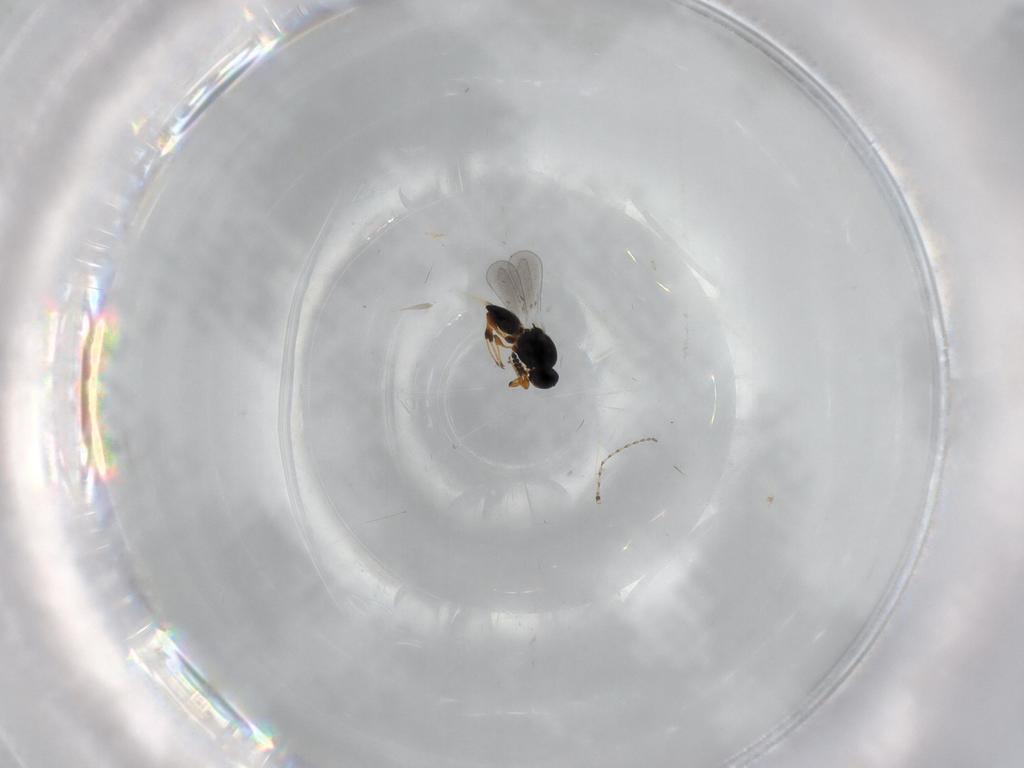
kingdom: Animalia
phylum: Arthropoda
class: Insecta
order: Hymenoptera
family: Platygastridae
